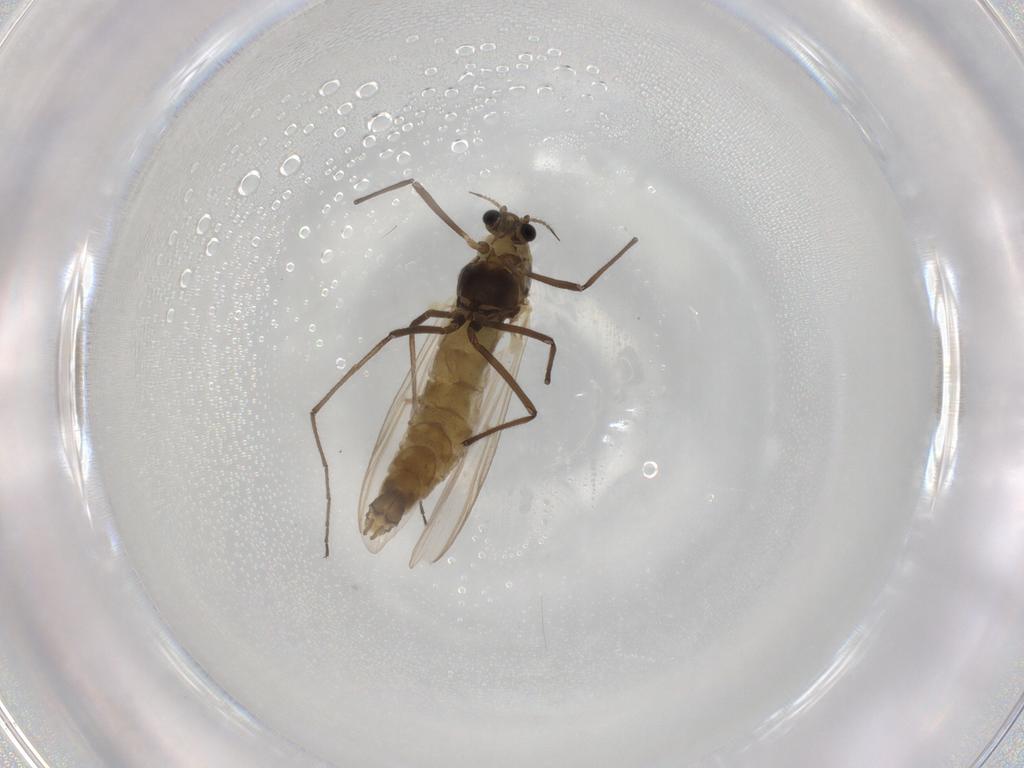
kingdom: Animalia
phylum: Arthropoda
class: Insecta
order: Diptera
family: Chironomidae
